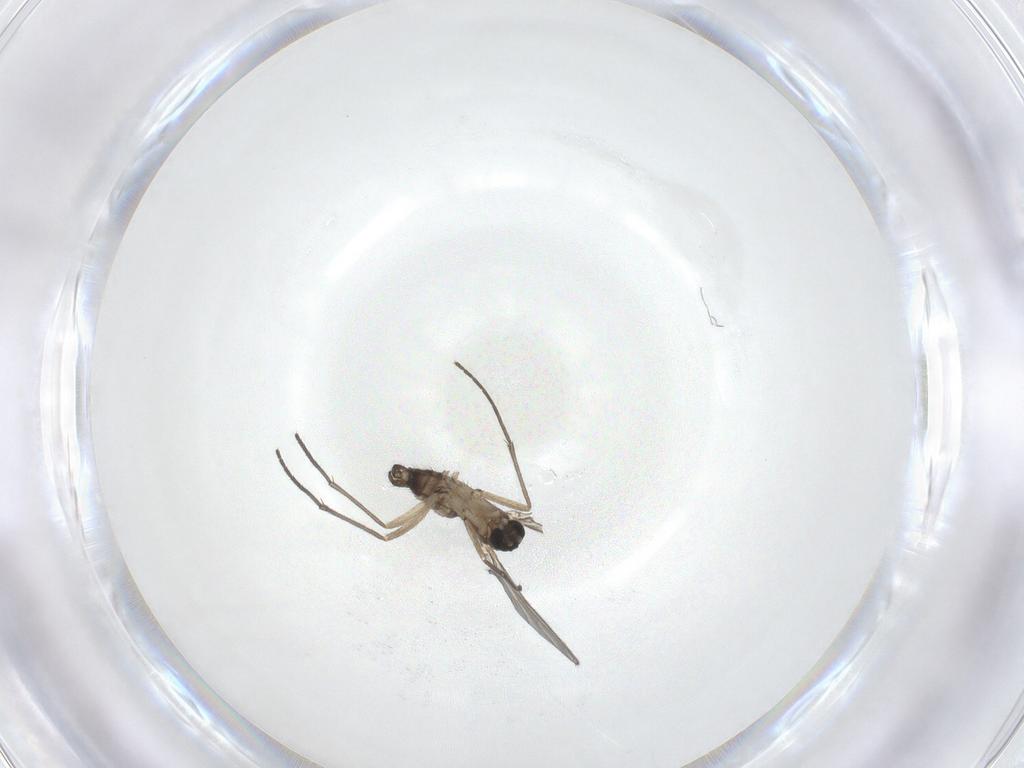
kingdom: Animalia
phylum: Arthropoda
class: Insecta
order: Diptera
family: Sciaridae
